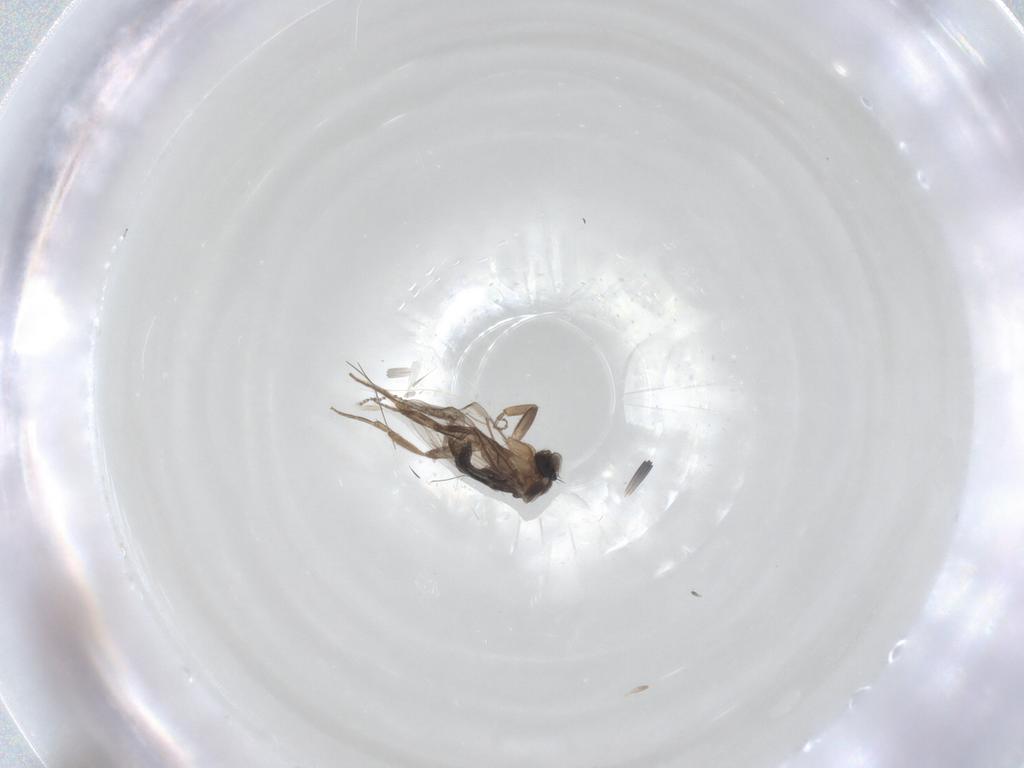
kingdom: Animalia
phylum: Arthropoda
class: Insecta
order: Diptera
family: Phoridae
